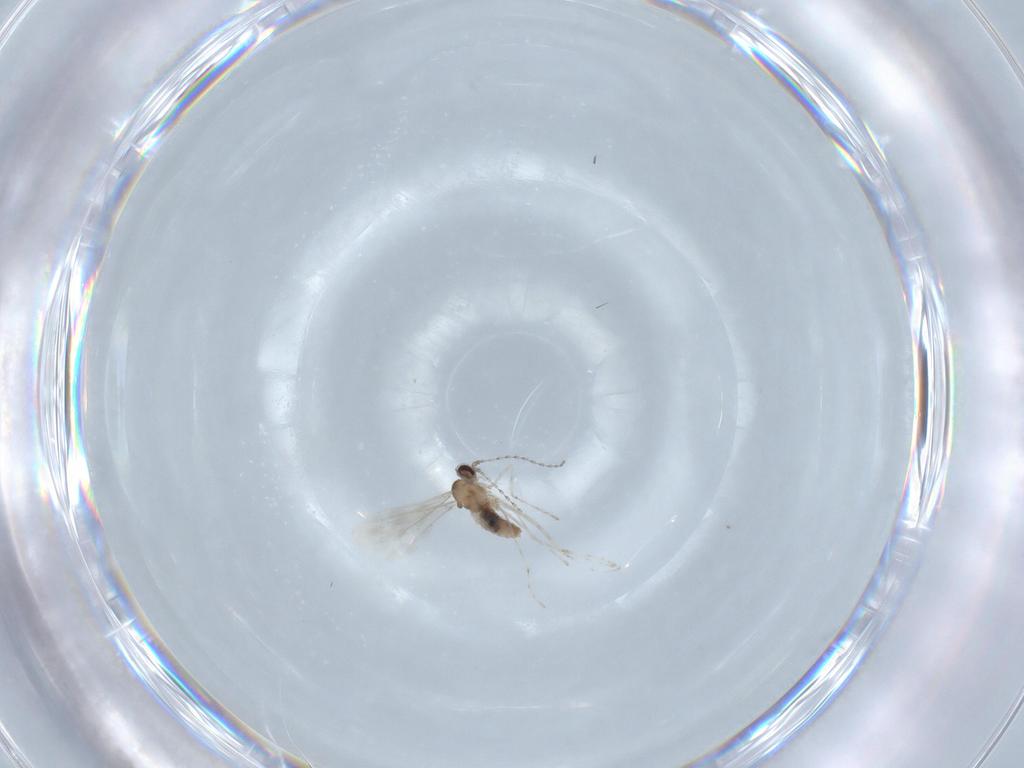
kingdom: Animalia
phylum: Arthropoda
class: Insecta
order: Diptera
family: Cecidomyiidae
